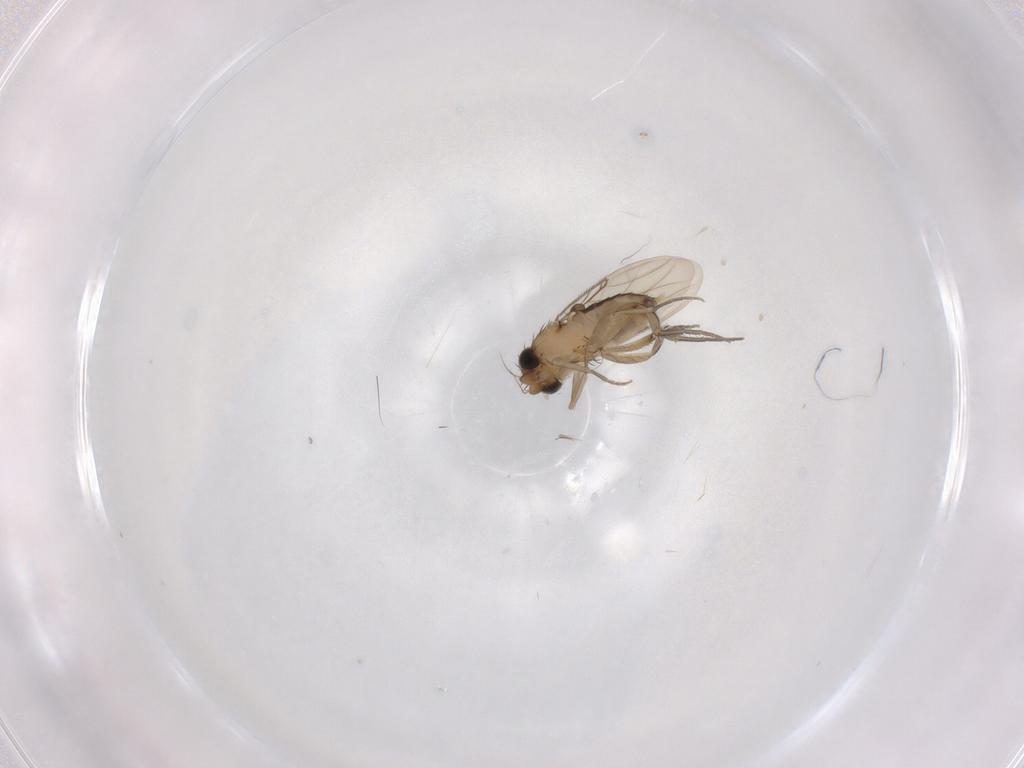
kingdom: Animalia
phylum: Arthropoda
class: Insecta
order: Diptera
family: Phoridae
